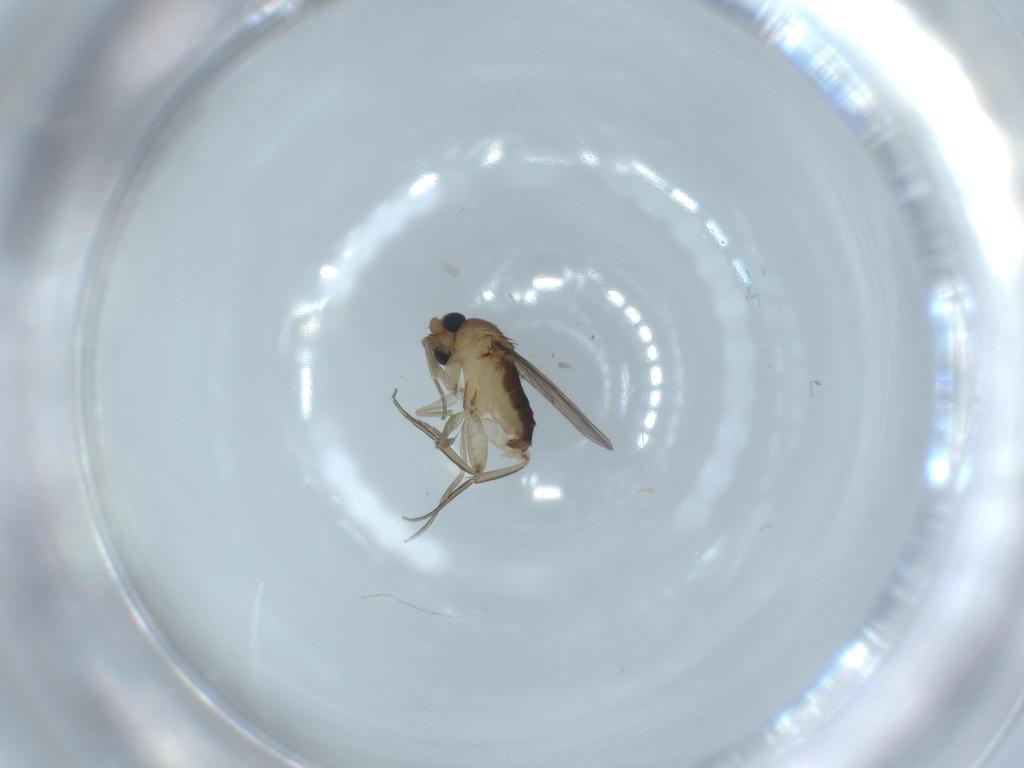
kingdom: Animalia
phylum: Arthropoda
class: Insecta
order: Diptera
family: Phoridae
